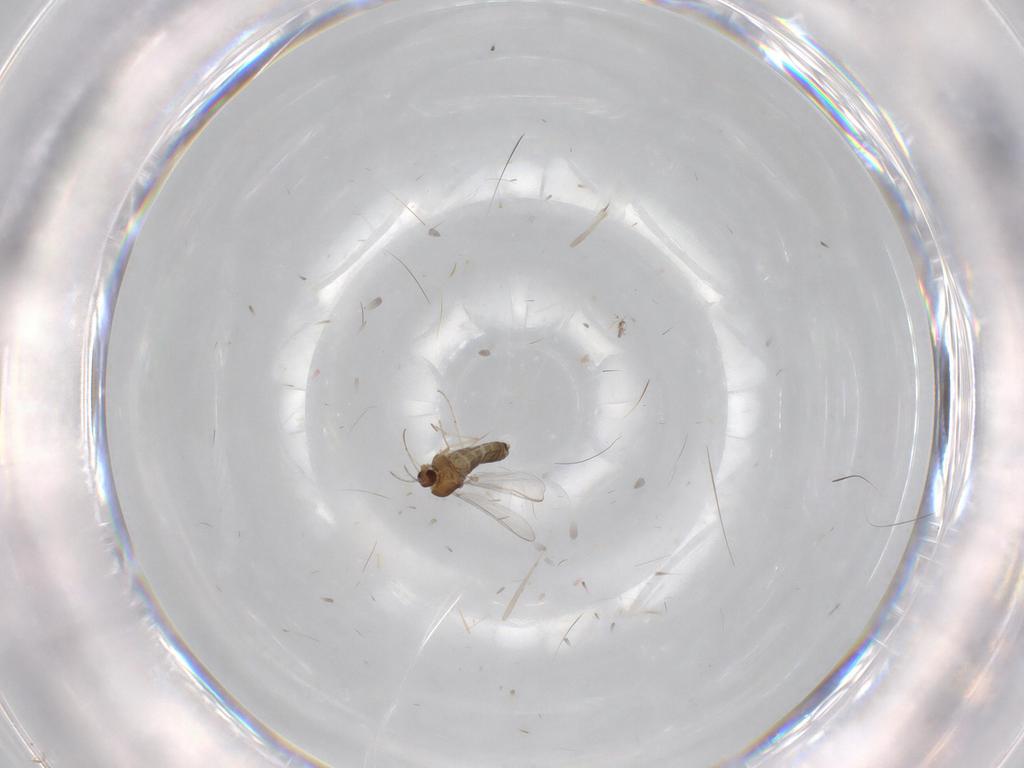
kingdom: Animalia
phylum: Arthropoda
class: Insecta
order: Diptera
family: Chironomidae
